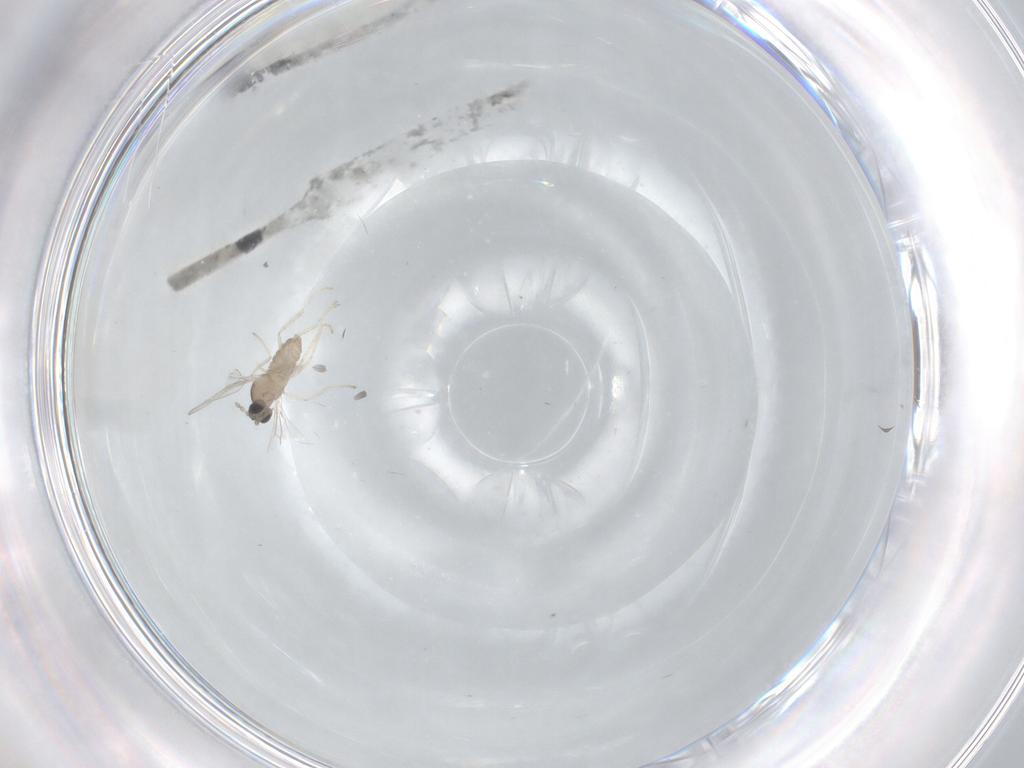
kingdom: Animalia
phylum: Arthropoda
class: Insecta
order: Diptera
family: Cecidomyiidae
